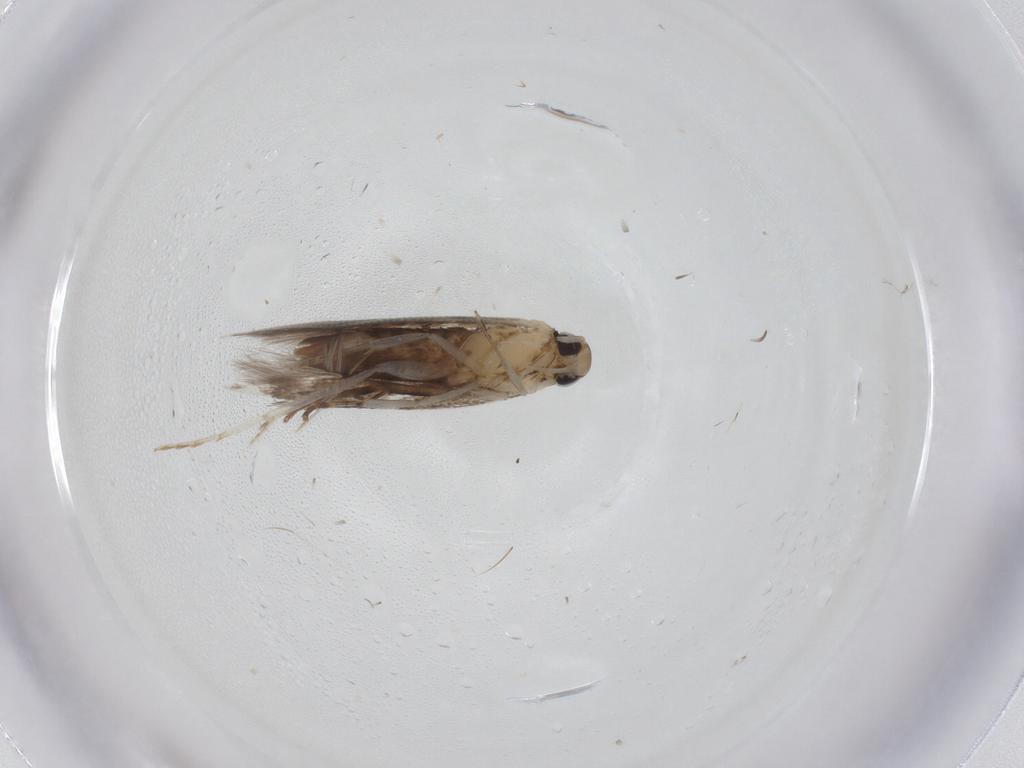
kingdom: Animalia
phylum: Arthropoda
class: Insecta
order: Lepidoptera
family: Cosmopterigidae
